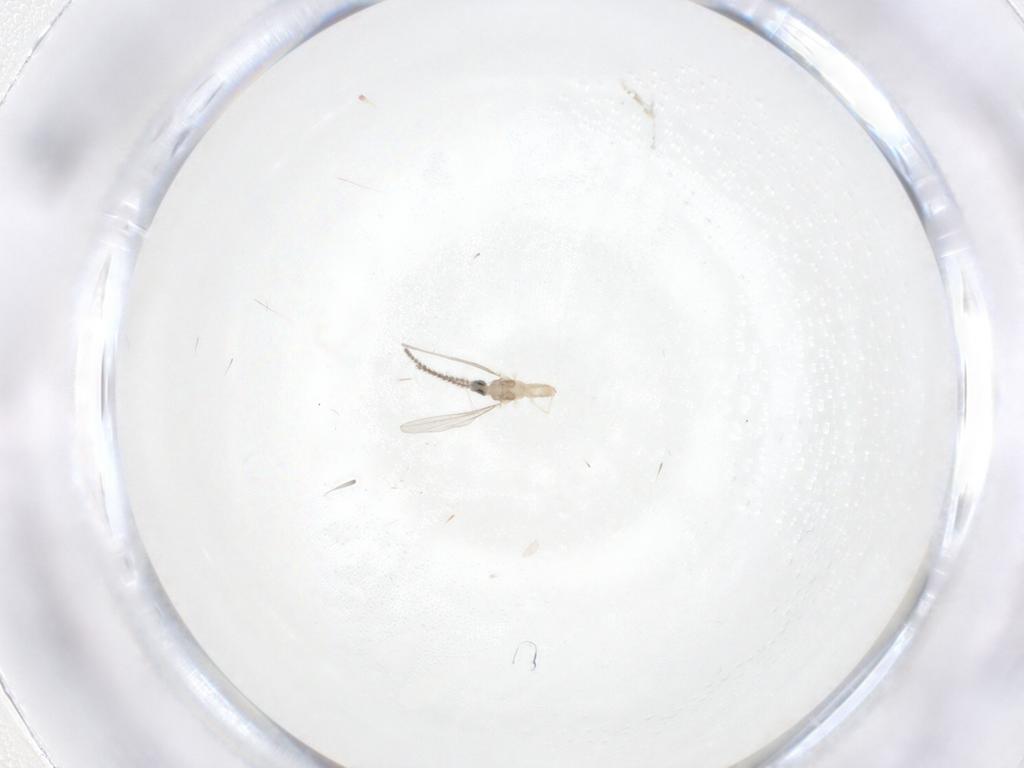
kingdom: Animalia
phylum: Arthropoda
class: Insecta
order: Diptera
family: Cecidomyiidae
